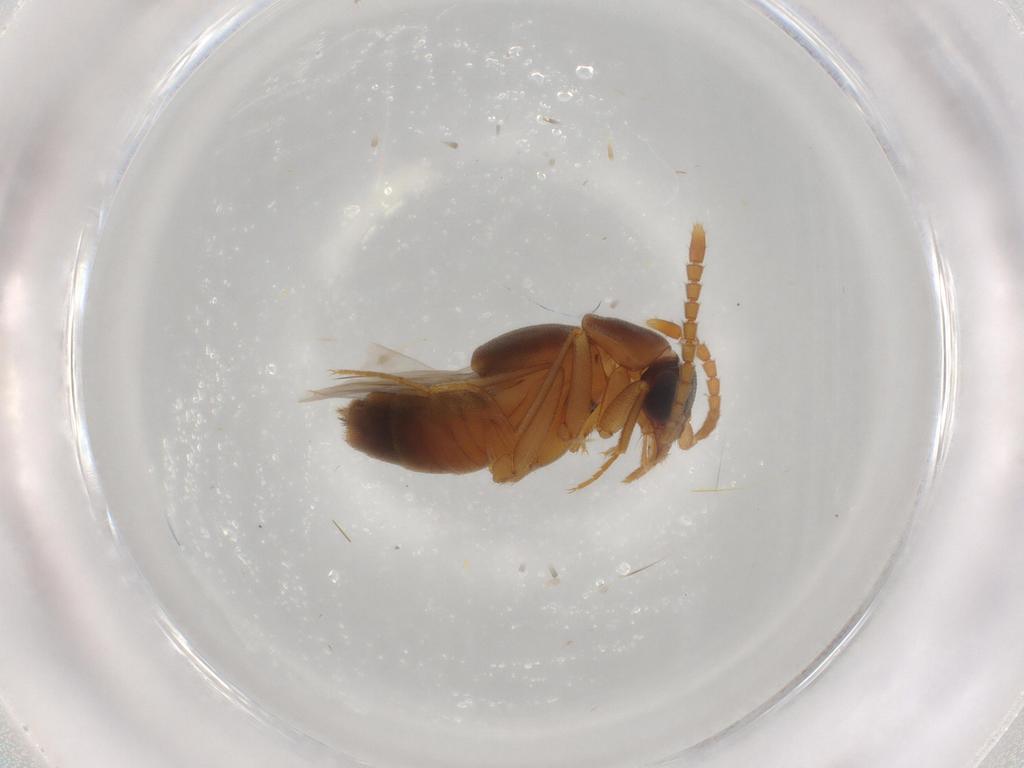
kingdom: Animalia
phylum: Arthropoda
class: Insecta
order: Coleoptera
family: Staphylinidae
